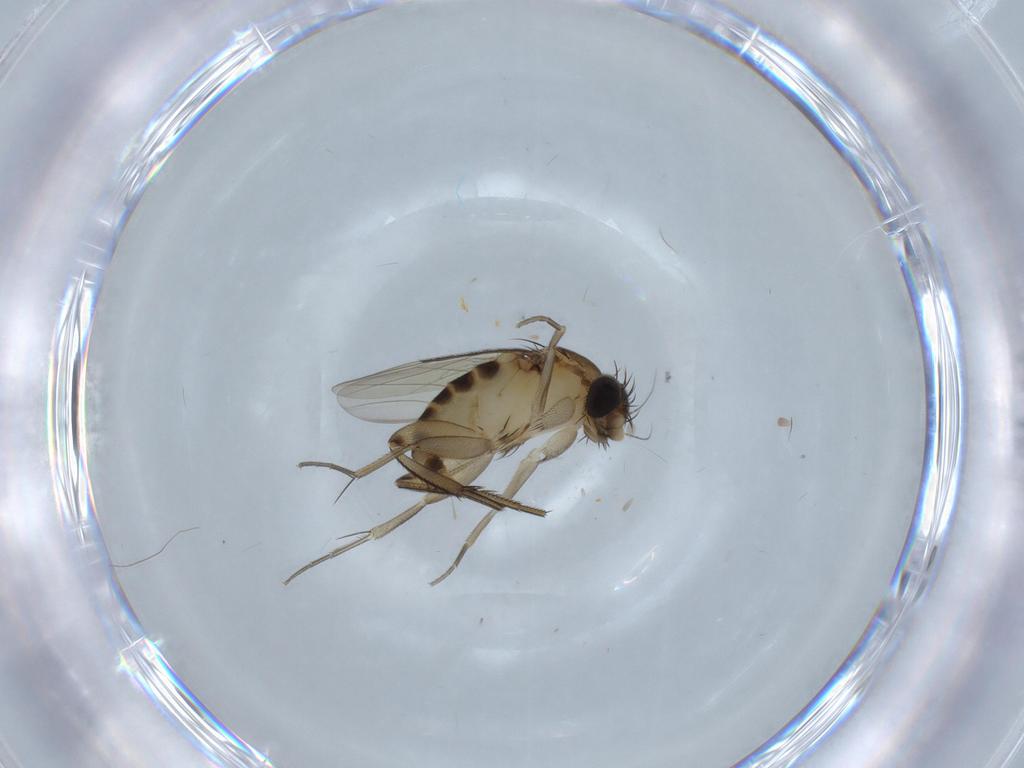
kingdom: Animalia
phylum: Arthropoda
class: Insecta
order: Diptera
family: Phoridae
